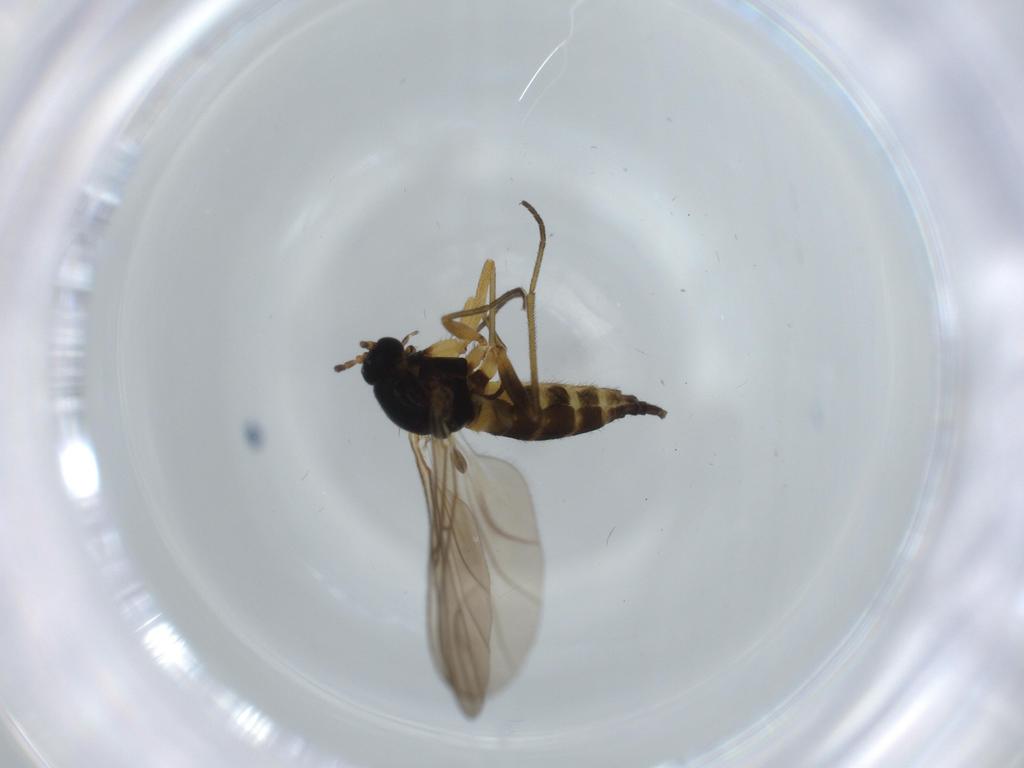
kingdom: Animalia
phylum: Arthropoda
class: Insecta
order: Diptera
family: Sciaridae
